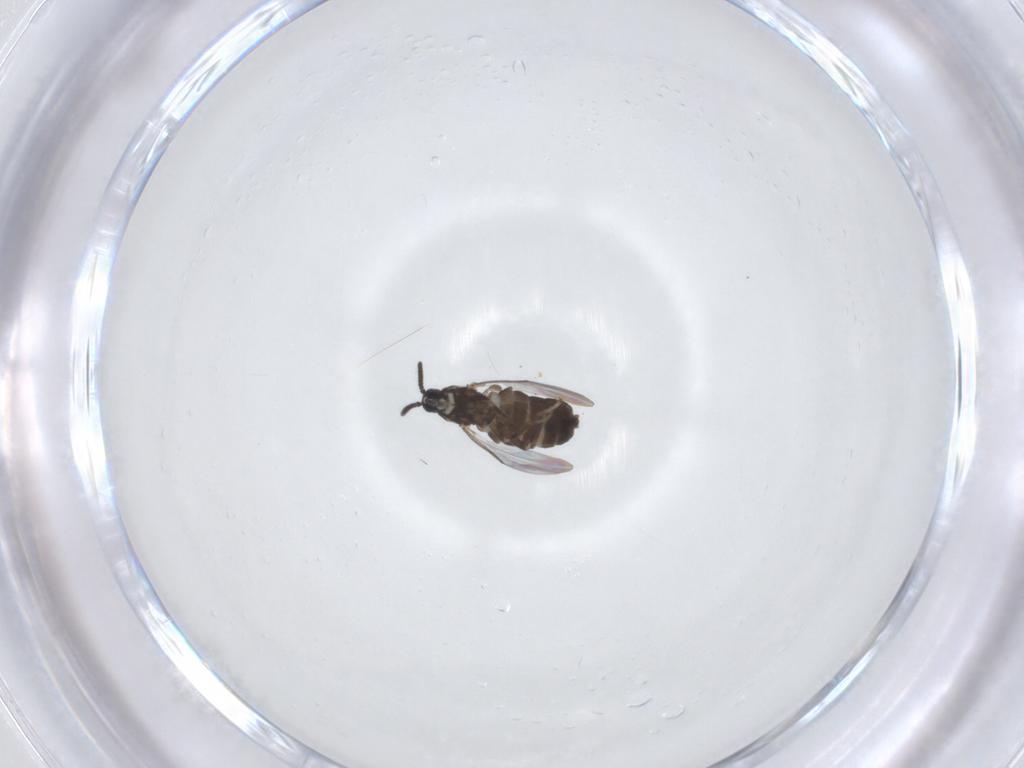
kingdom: Animalia
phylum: Arthropoda
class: Insecta
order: Diptera
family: Scatopsidae
